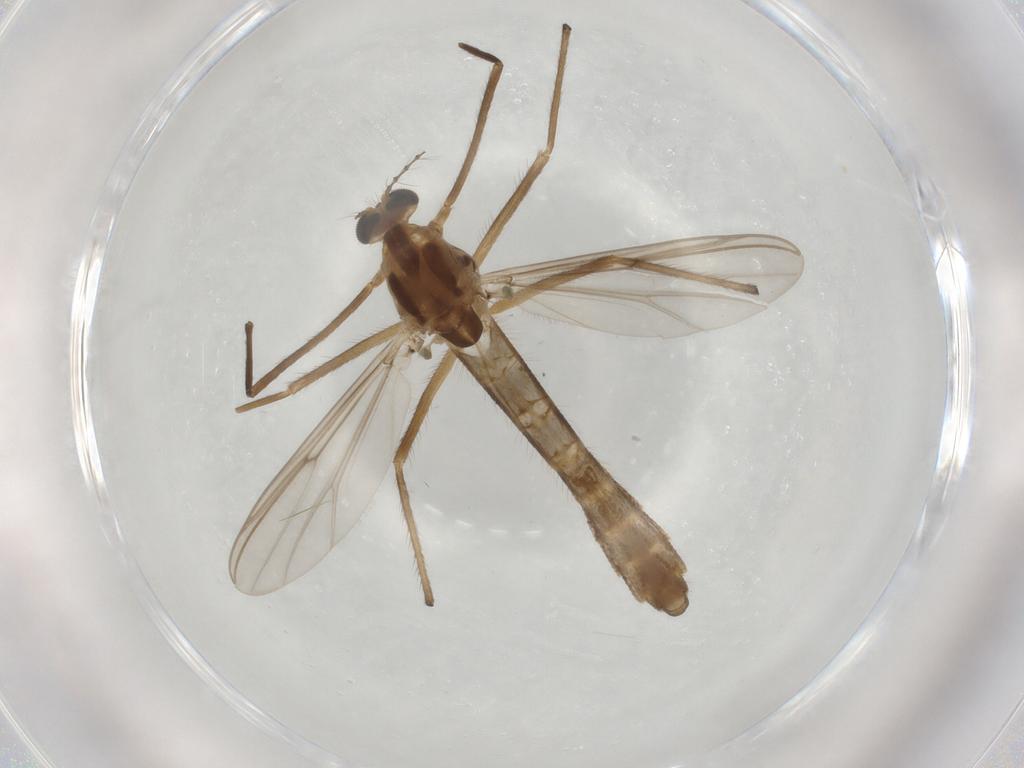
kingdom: Animalia
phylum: Arthropoda
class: Insecta
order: Diptera
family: Chironomidae
